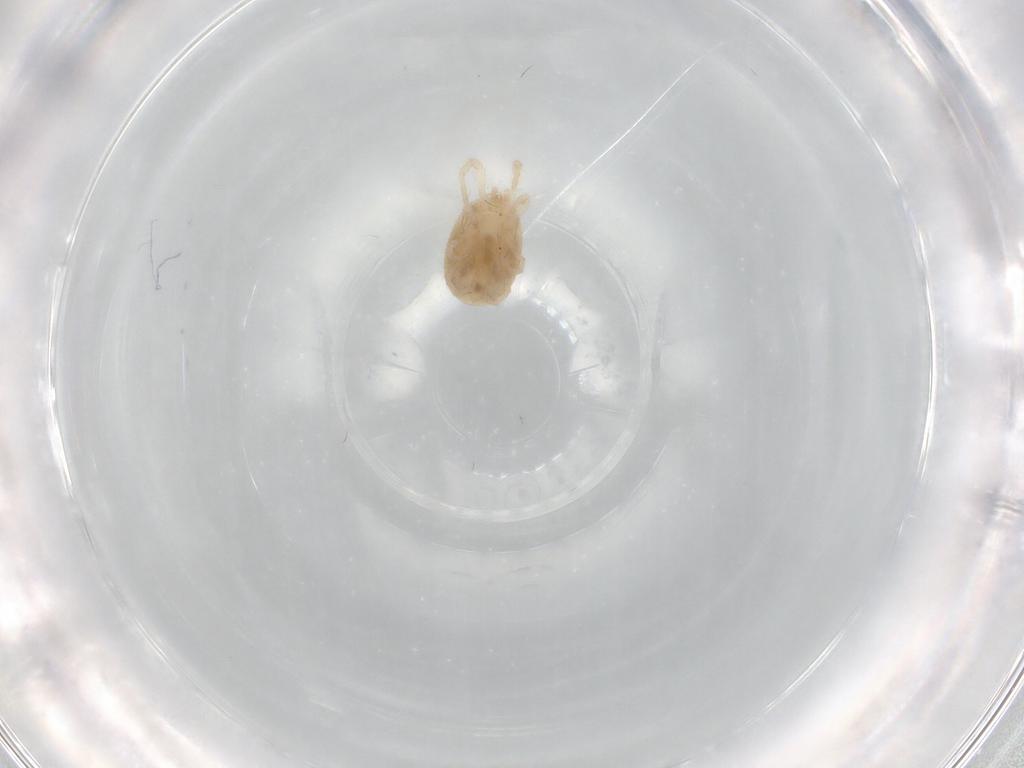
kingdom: Animalia
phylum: Arthropoda
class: Arachnida
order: Mesostigmata
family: Parasitidae
